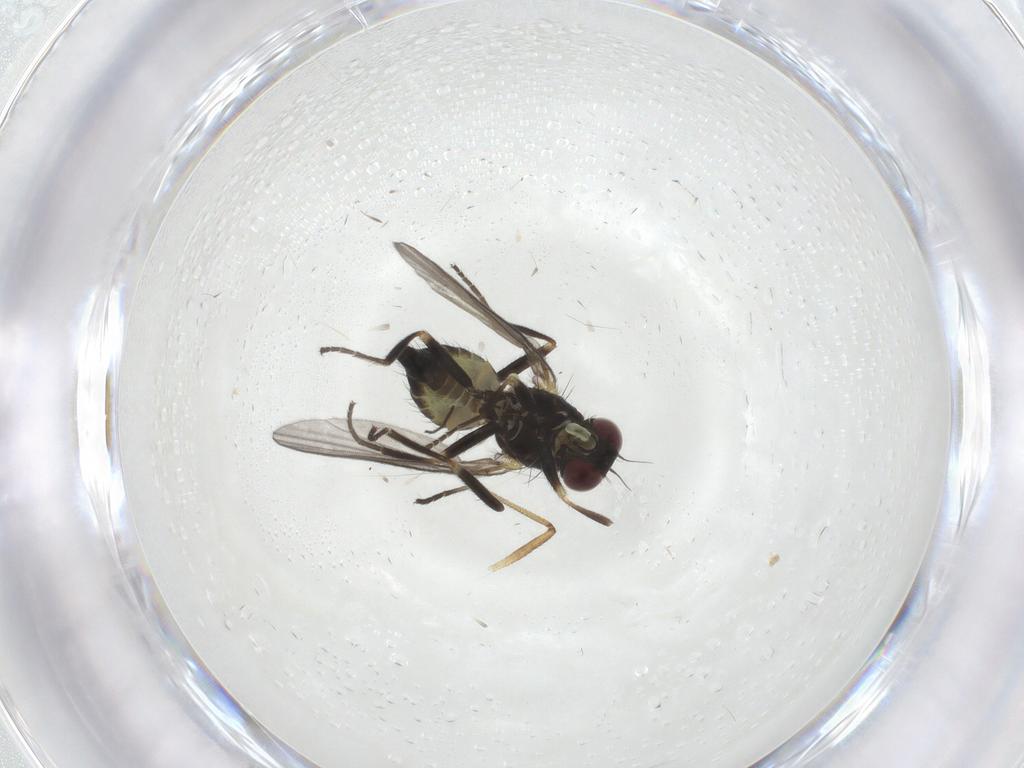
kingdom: Animalia
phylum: Arthropoda
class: Insecta
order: Diptera
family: Agromyzidae
